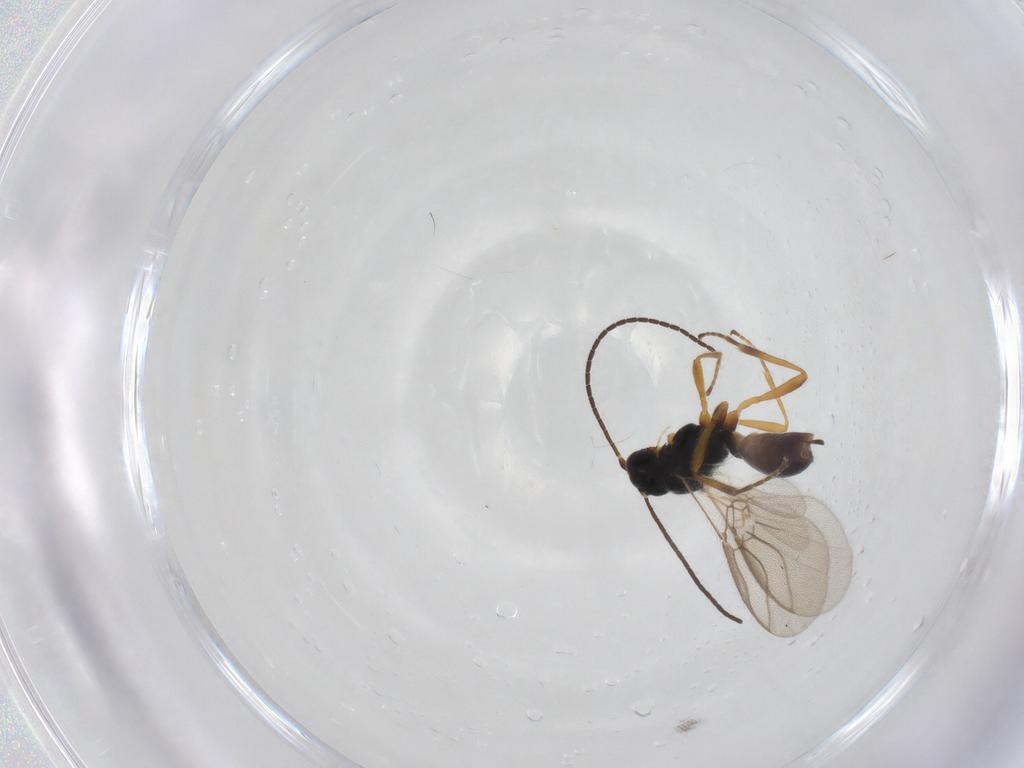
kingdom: Animalia
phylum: Arthropoda
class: Insecta
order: Hymenoptera
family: Braconidae
